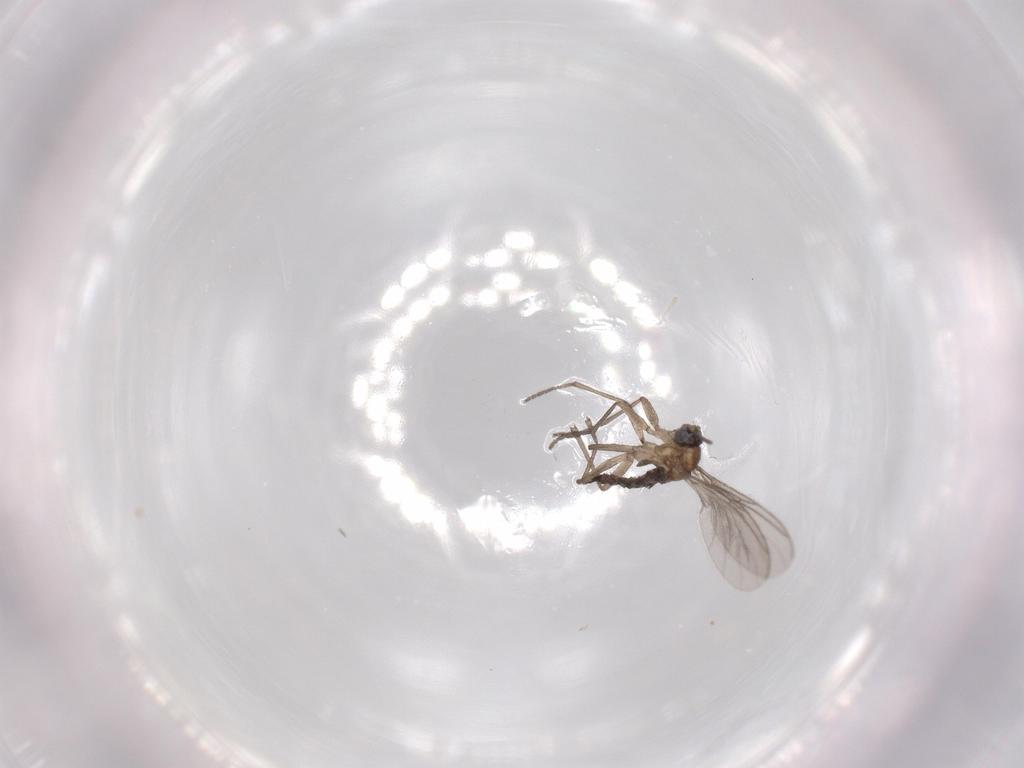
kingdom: Animalia
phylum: Arthropoda
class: Insecta
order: Diptera
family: Sciaridae
